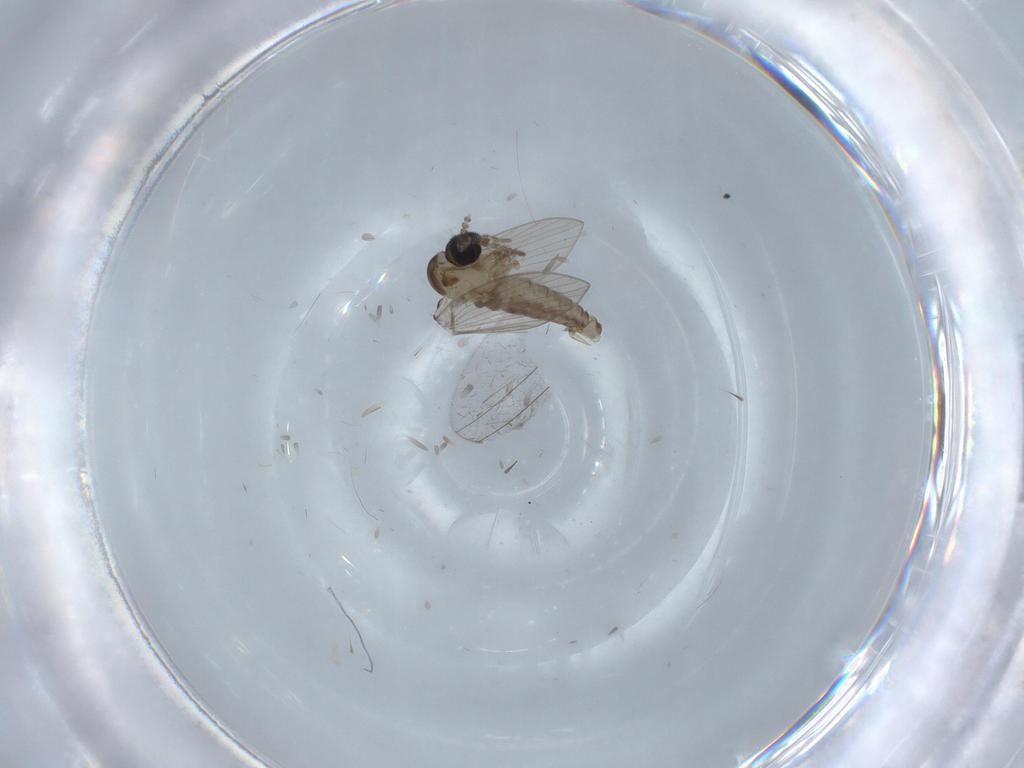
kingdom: Animalia
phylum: Arthropoda
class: Insecta
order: Diptera
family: Psychodidae
